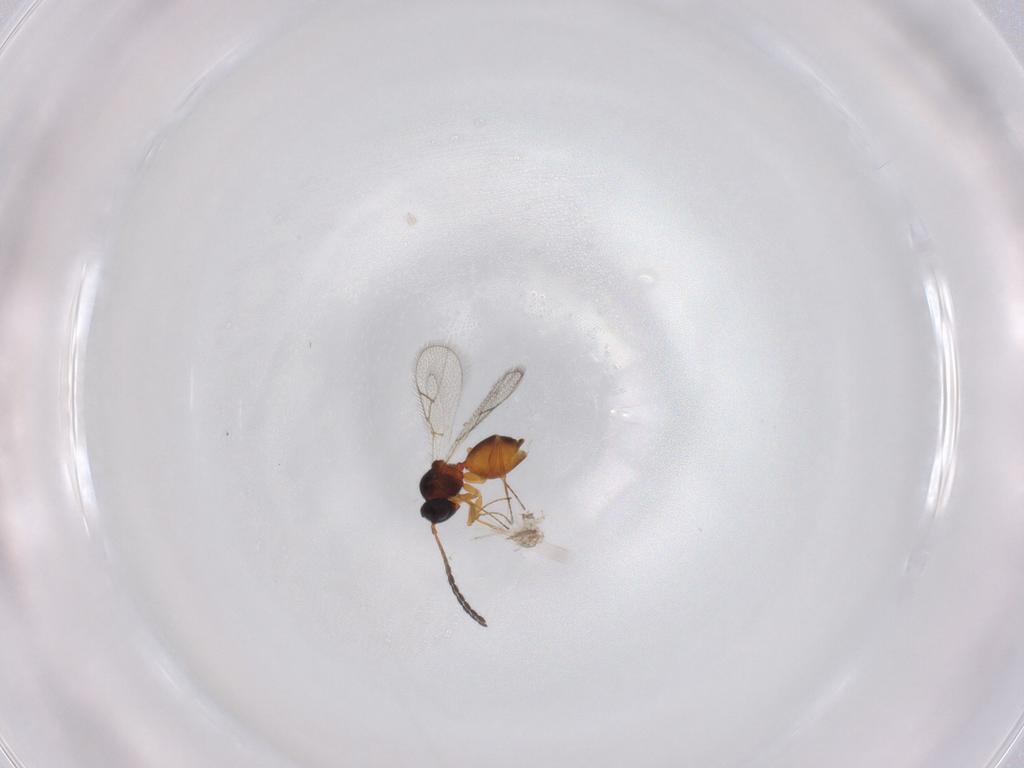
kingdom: Animalia
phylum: Arthropoda
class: Insecta
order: Hymenoptera
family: Figitidae
